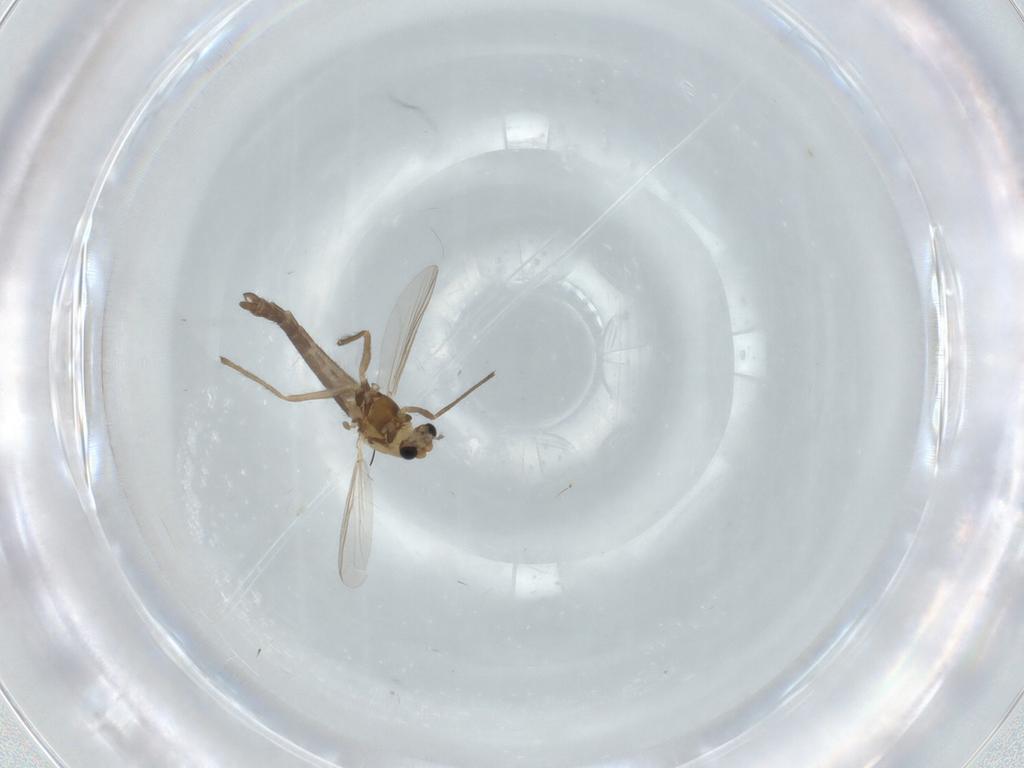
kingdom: Animalia
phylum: Arthropoda
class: Insecta
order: Diptera
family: Chironomidae
